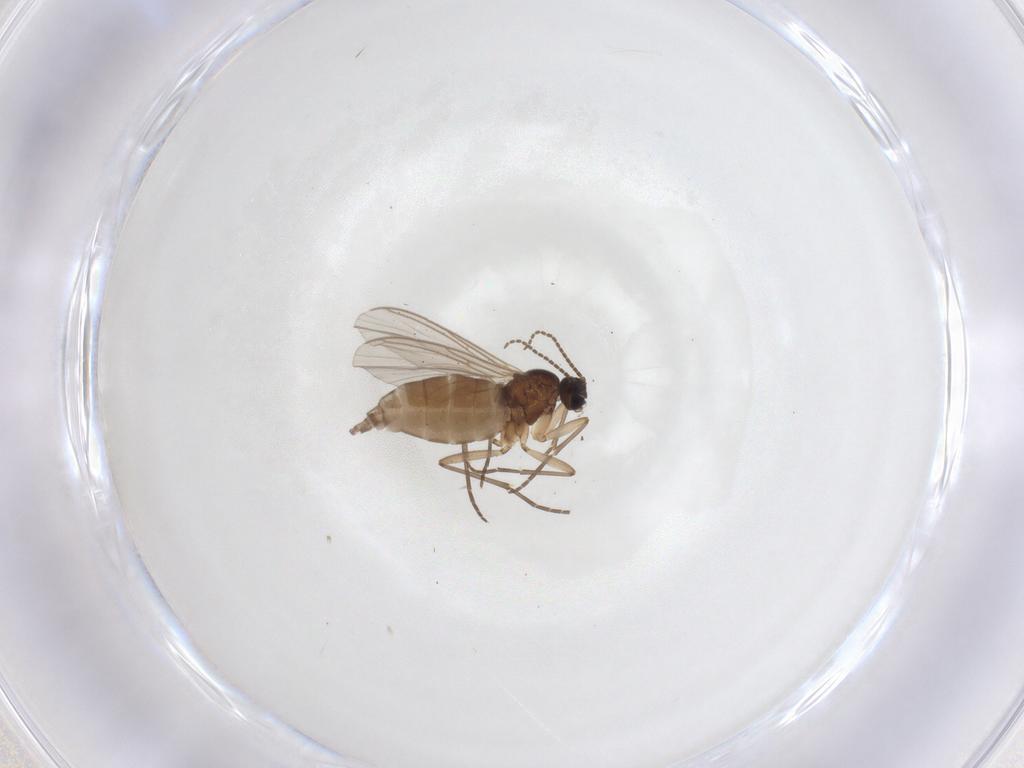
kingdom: Animalia
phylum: Arthropoda
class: Insecta
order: Diptera
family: Sciaridae
